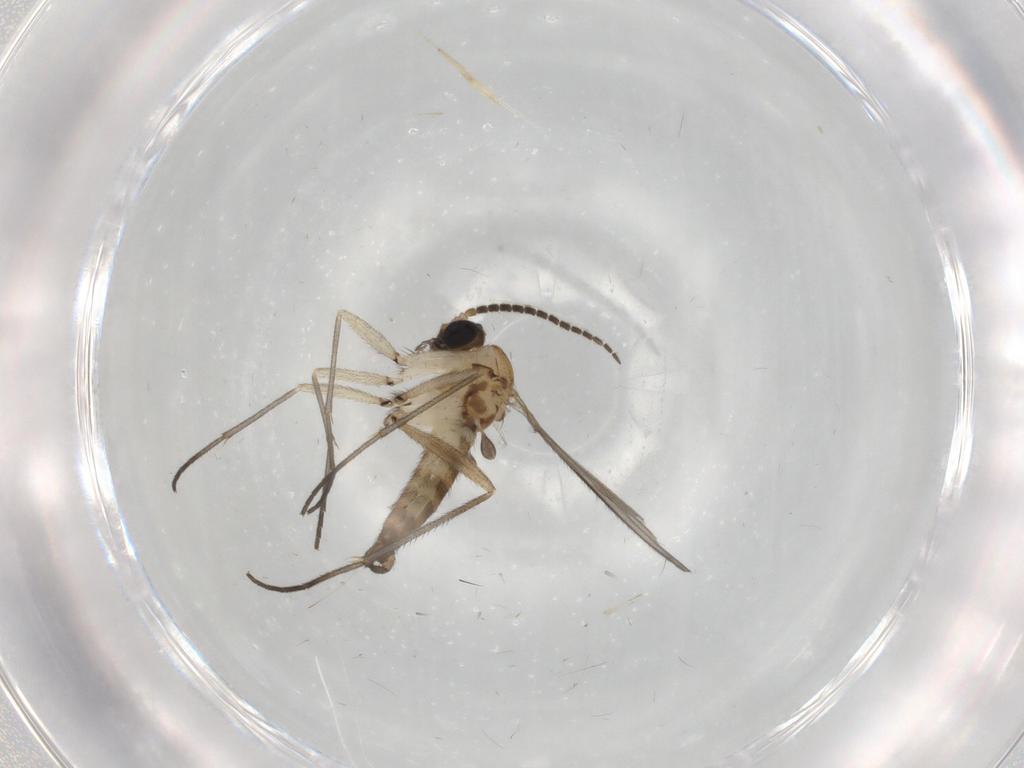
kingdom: Animalia
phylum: Arthropoda
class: Insecta
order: Diptera
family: Sciaridae
